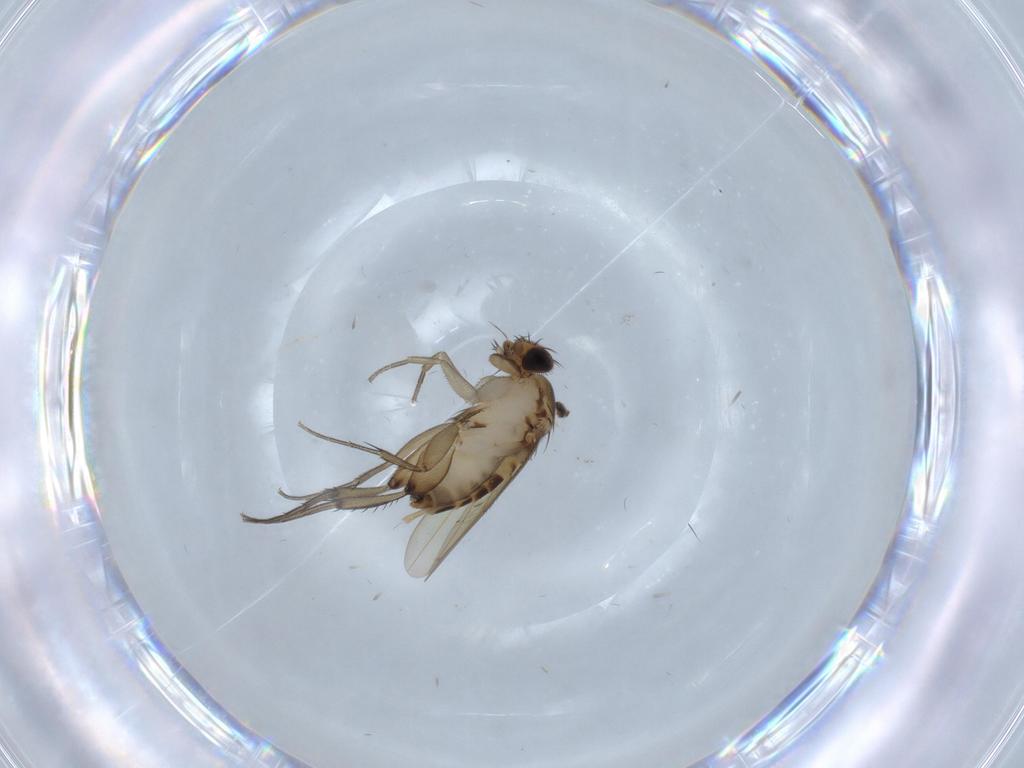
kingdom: Animalia
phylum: Arthropoda
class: Insecta
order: Diptera
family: Phoridae
